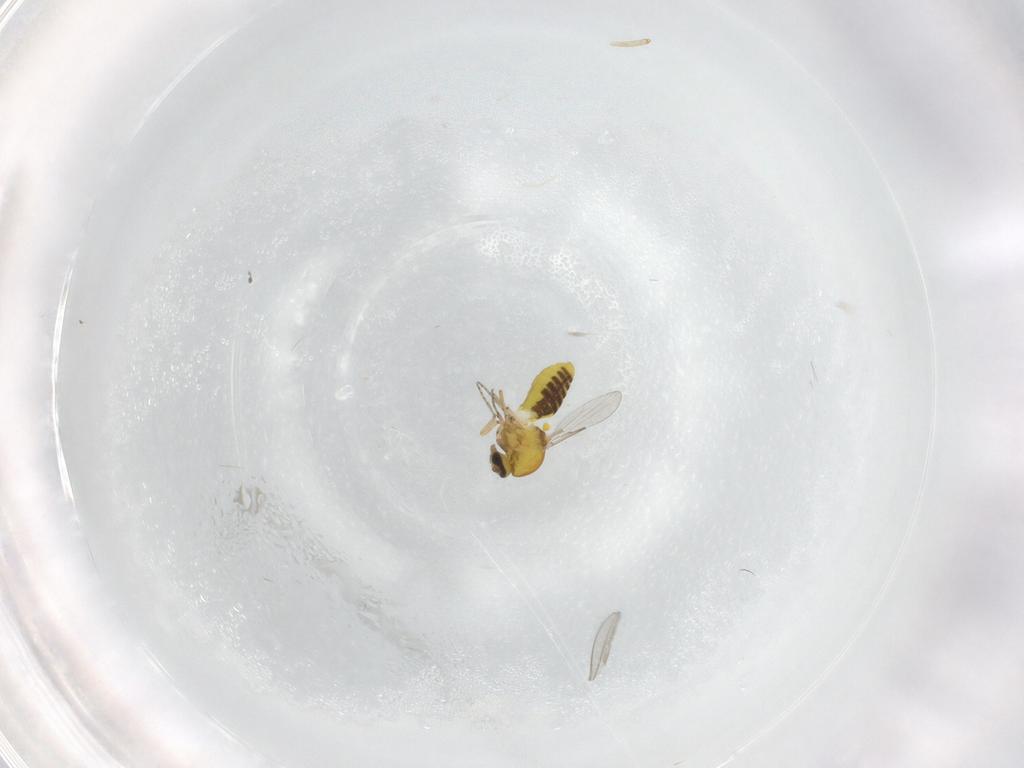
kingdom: Animalia
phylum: Arthropoda
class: Insecta
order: Diptera
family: Ceratopogonidae
